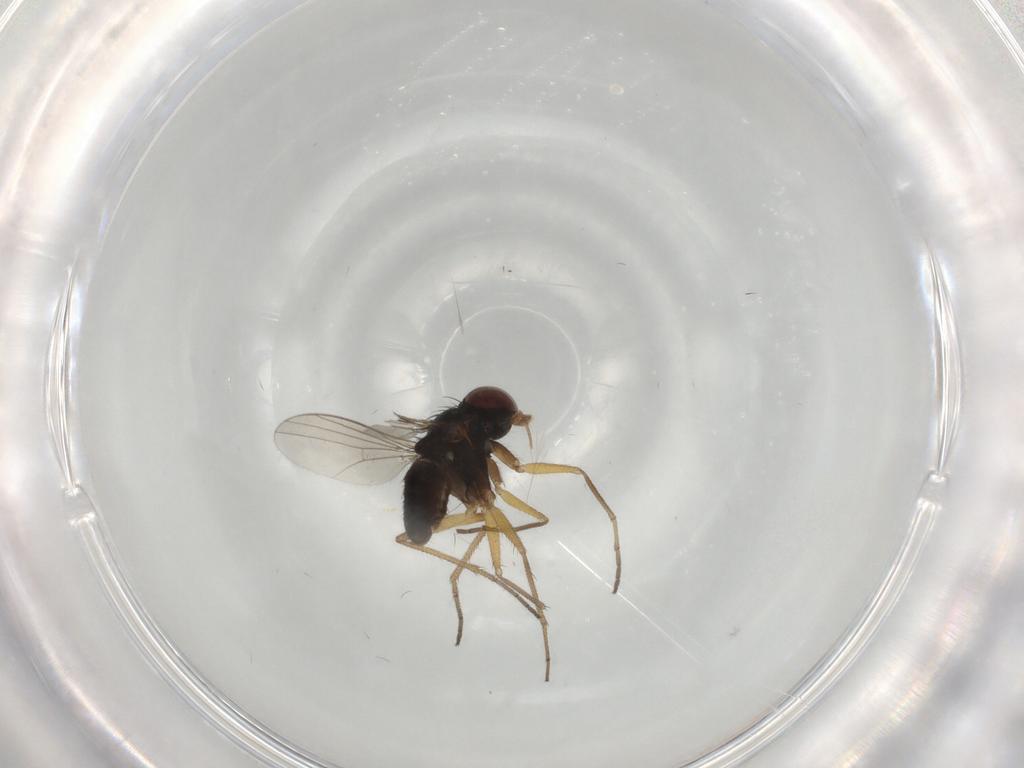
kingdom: Animalia
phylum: Arthropoda
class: Insecta
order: Diptera
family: Dolichopodidae
